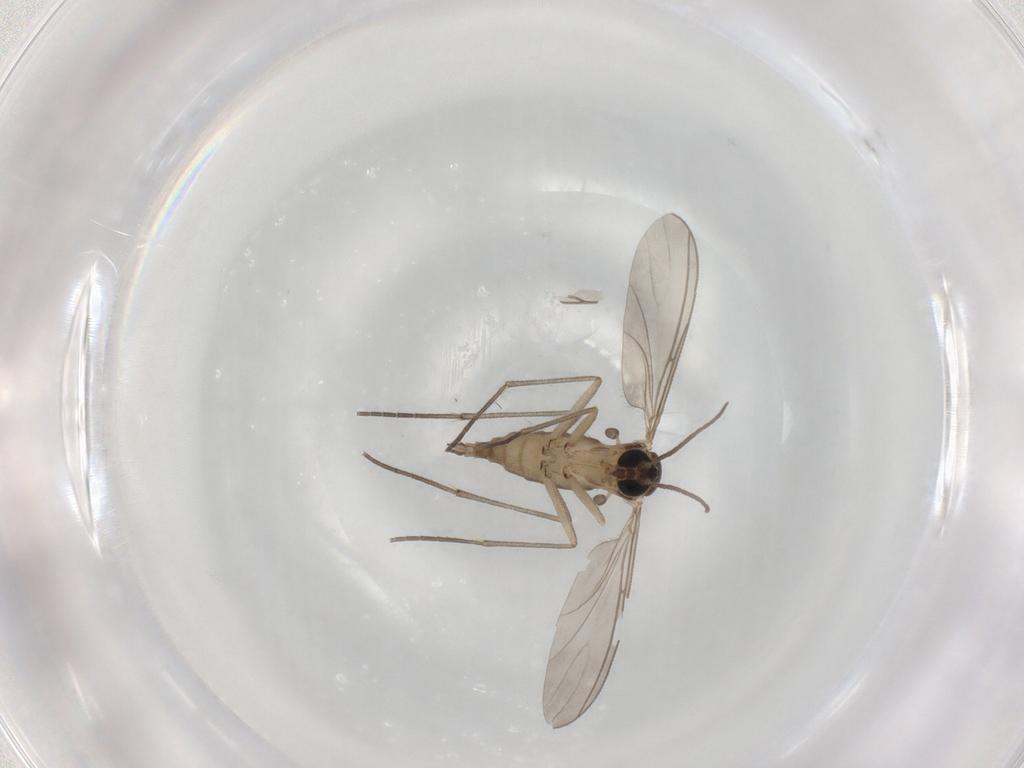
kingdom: Animalia
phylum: Arthropoda
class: Insecta
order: Diptera
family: Sciaridae
